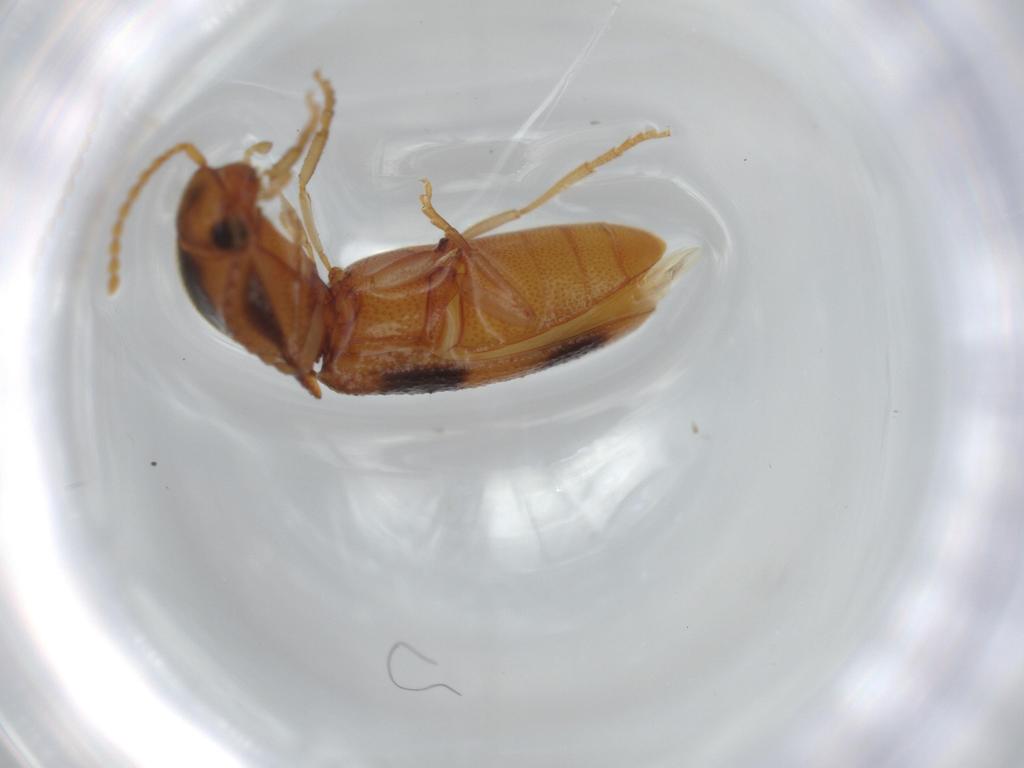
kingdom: Animalia
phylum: Arthropoda
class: Insecta
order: Coleoptera
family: Elateridae
